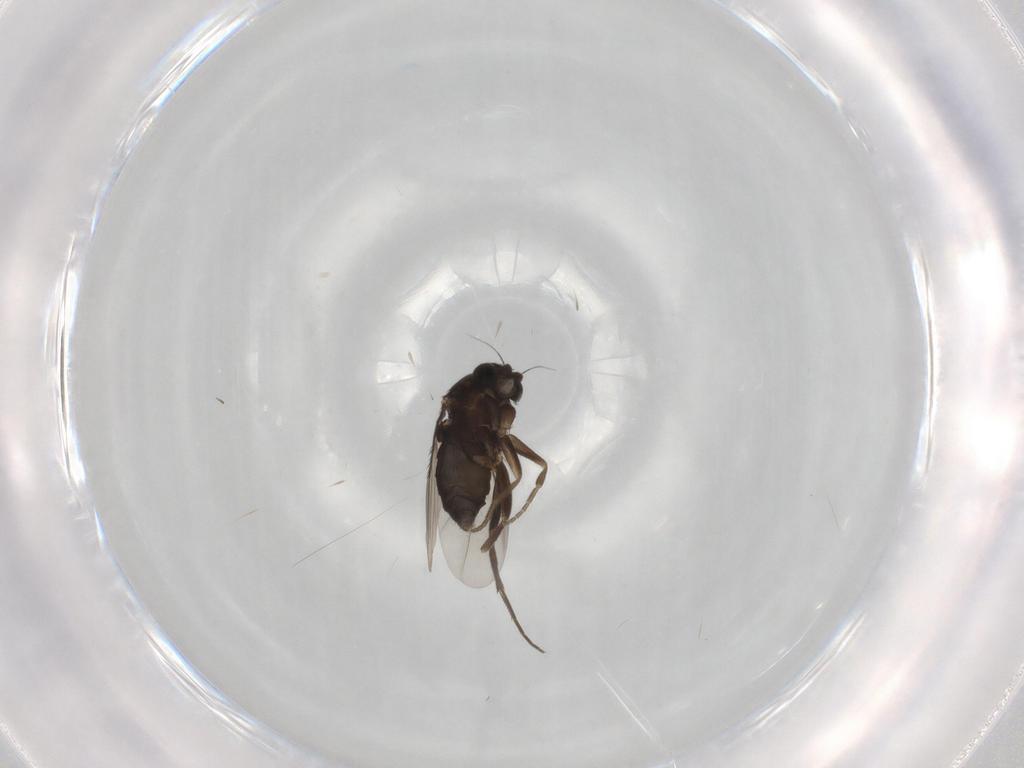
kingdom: Animalia
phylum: Arthropoda
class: Insecta
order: Diptera
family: Phoridae
